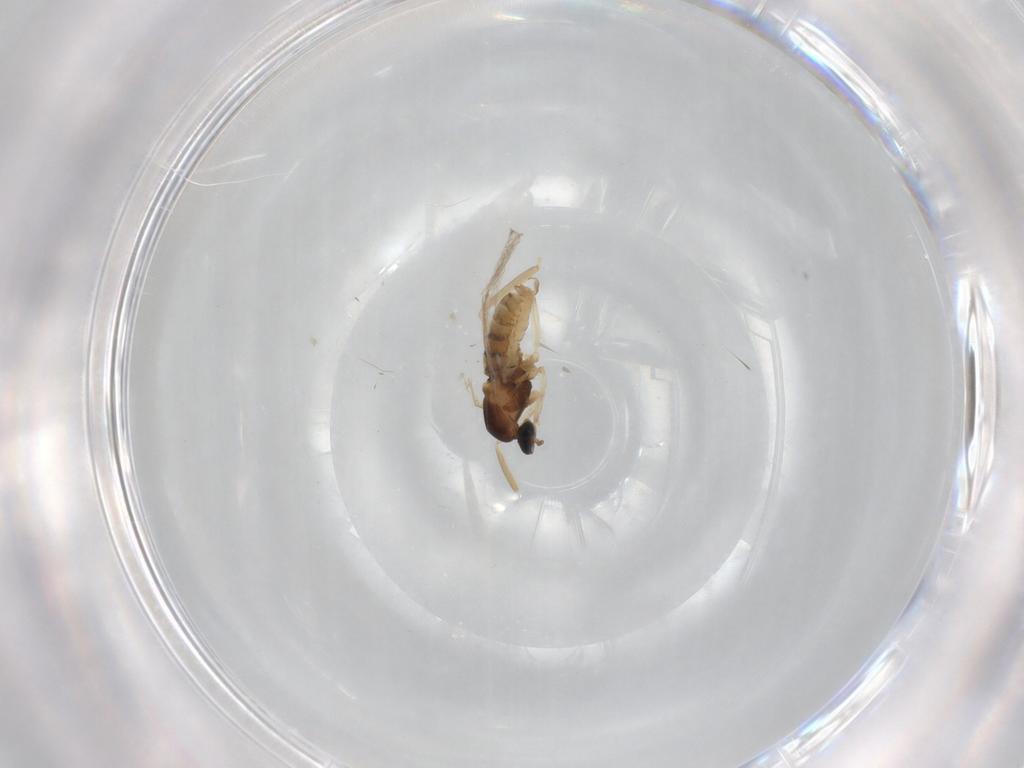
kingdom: Animalia
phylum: Arthropoda
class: Insecta
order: Diptera
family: Cecidomyiidae
